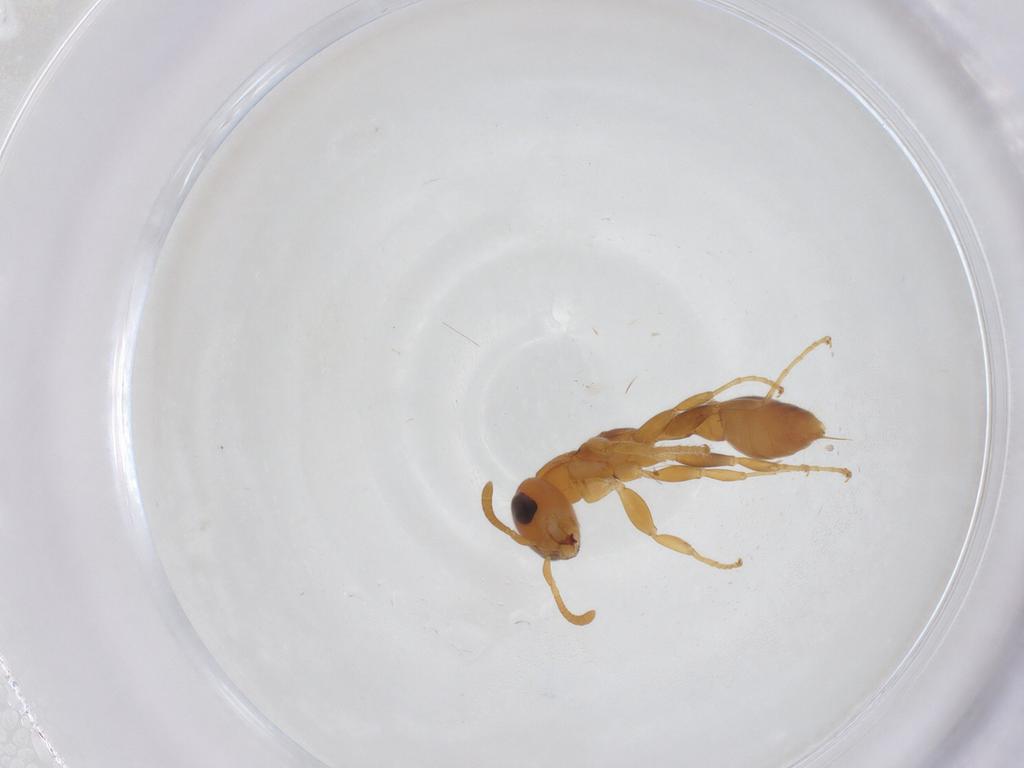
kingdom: Animalia
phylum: Arthropoda
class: Insecta
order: Hymenoptera
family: Formicidae
